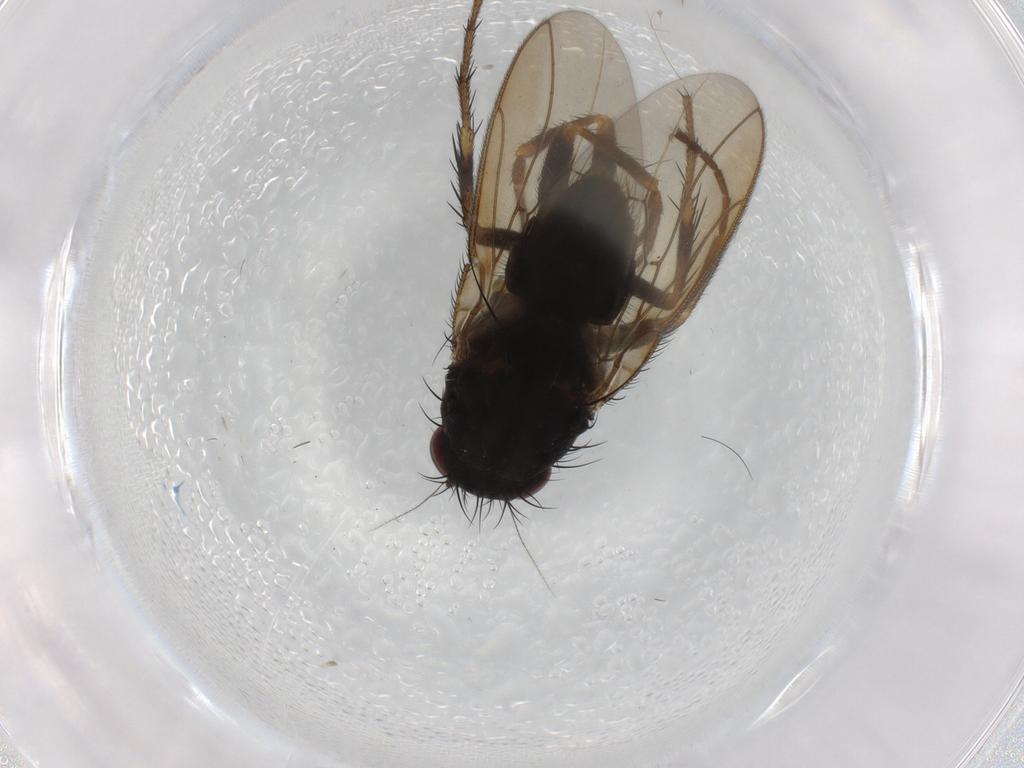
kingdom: Animalia
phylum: Arthropoda
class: Insecta
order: Diptera
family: Sphaeroceridae
